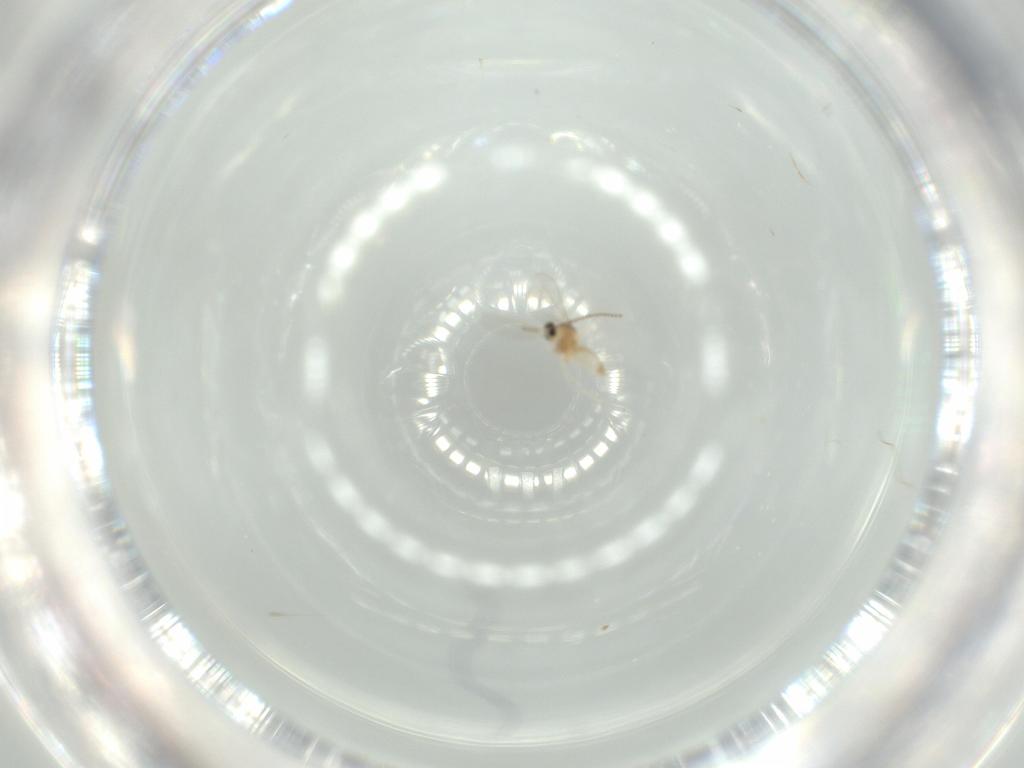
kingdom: Animalia
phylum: Arthropoda
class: Insecta
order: Diptera
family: Cecidomyiidae
